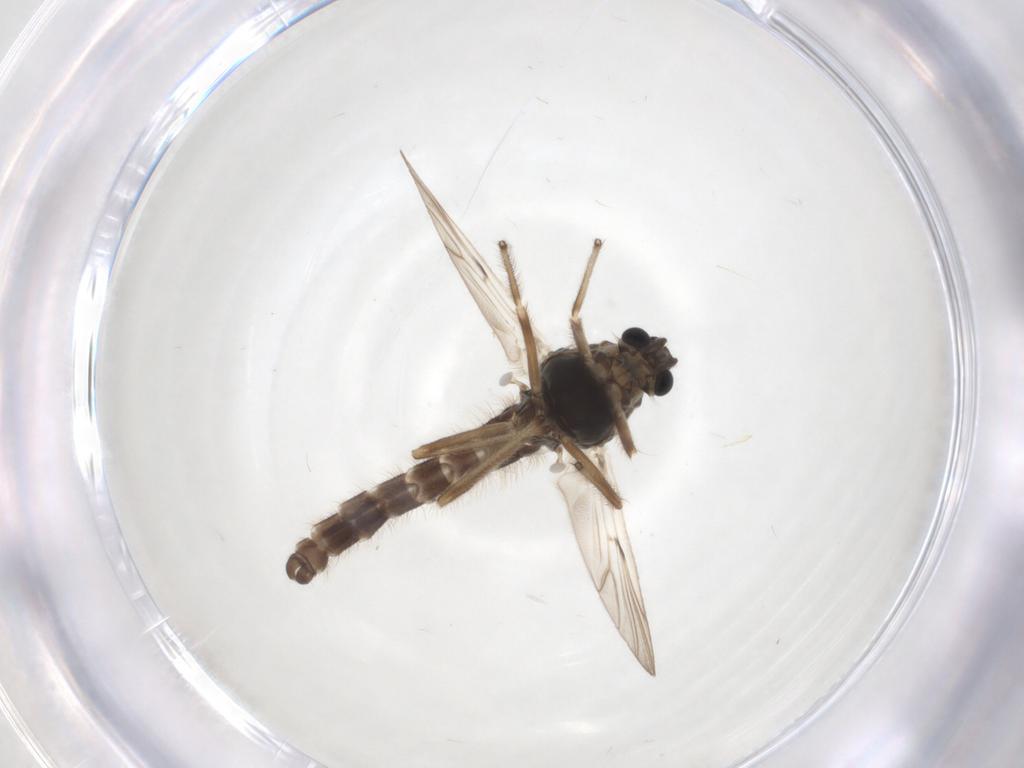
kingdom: Animalia
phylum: Arthropoda
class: Insecta
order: Diptera
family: Chironomidae
